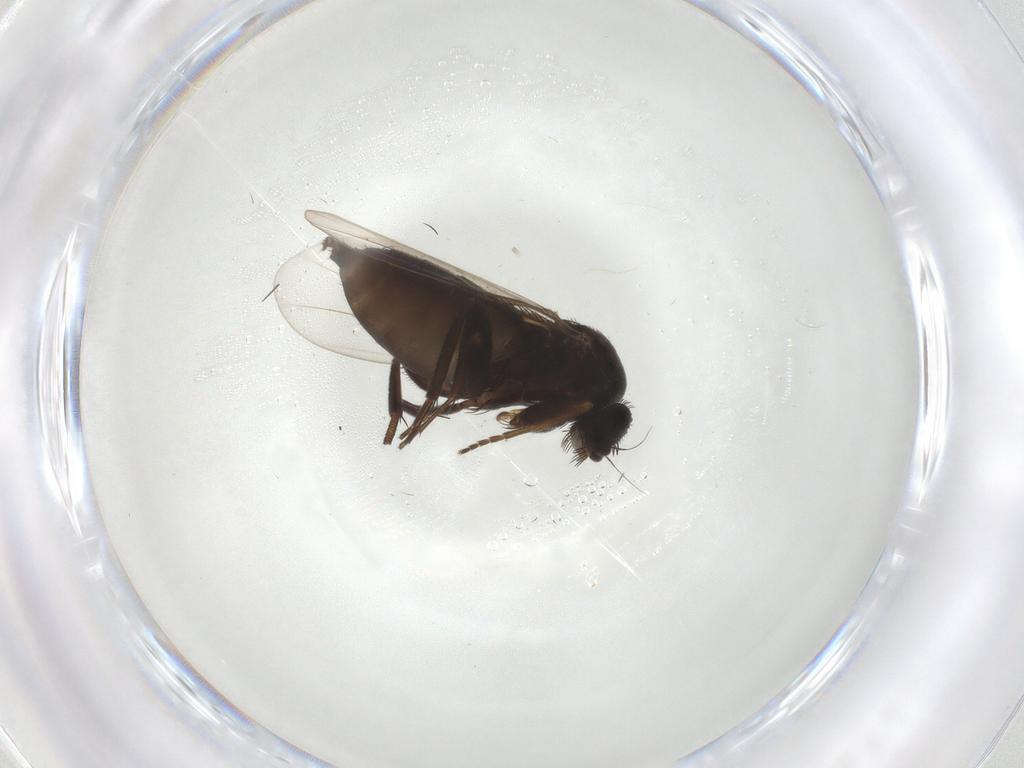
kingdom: Animalia
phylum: Arthropoda
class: Insecta
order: Diptera
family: Phoridae
